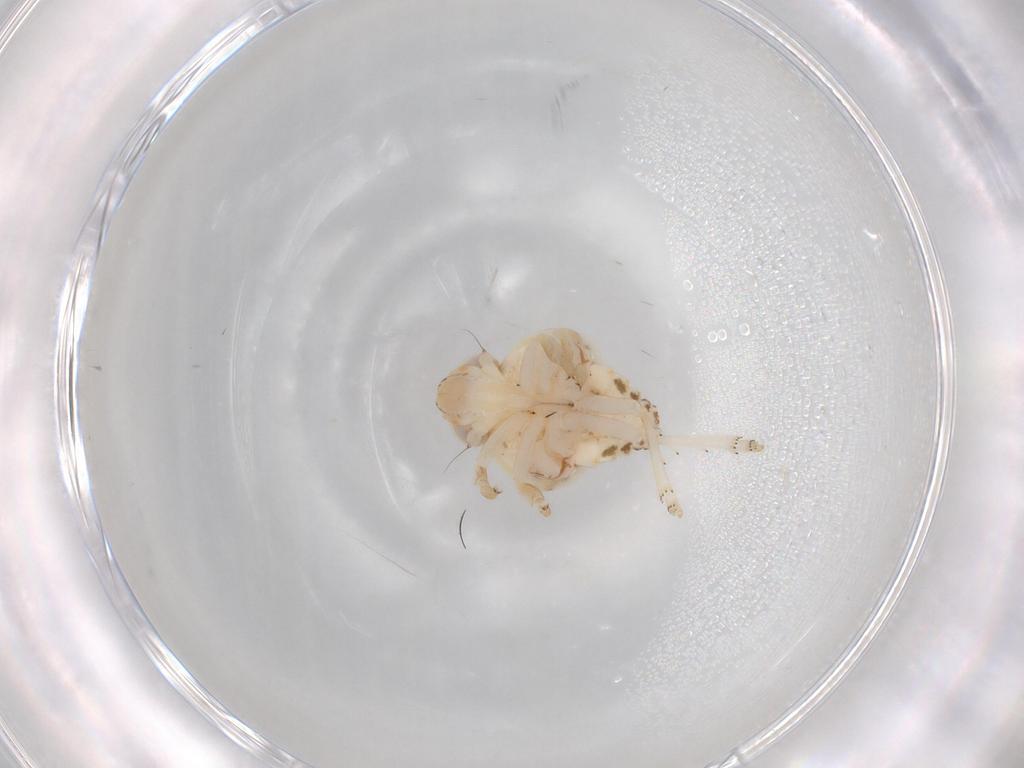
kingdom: Animalia
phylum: Arthropoda
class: Insecta
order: Hemiptera
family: Nogodinidae
